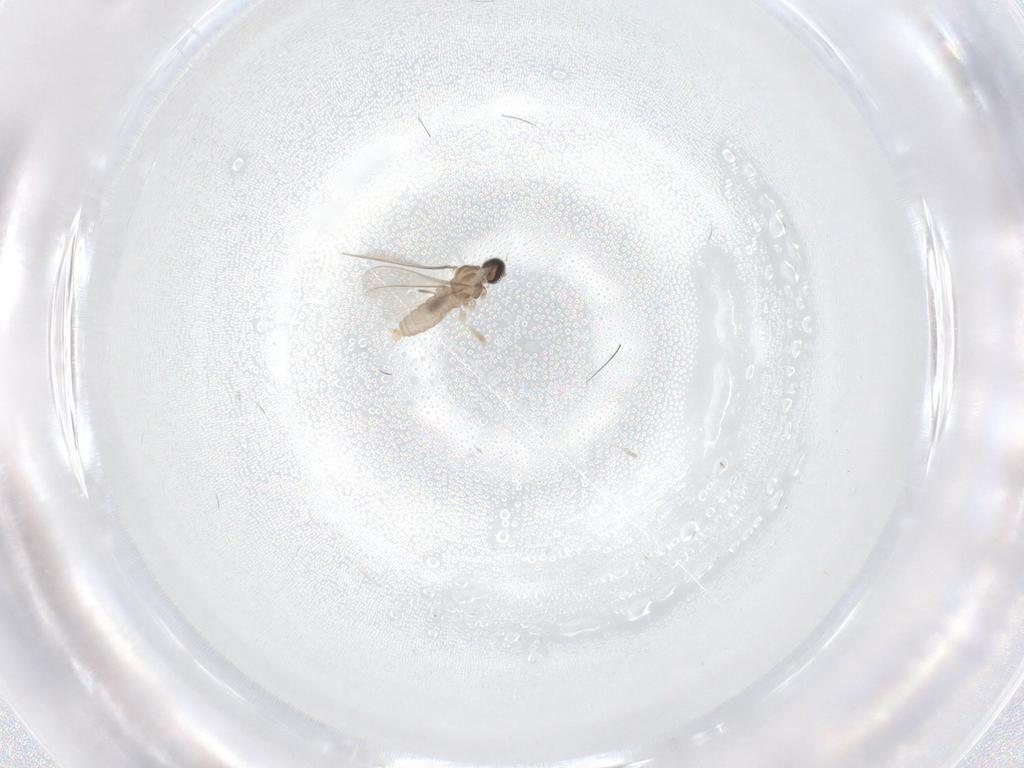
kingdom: Animalia
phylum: Arthropoda
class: Insecta
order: Diptera
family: Cecidomyiidae
